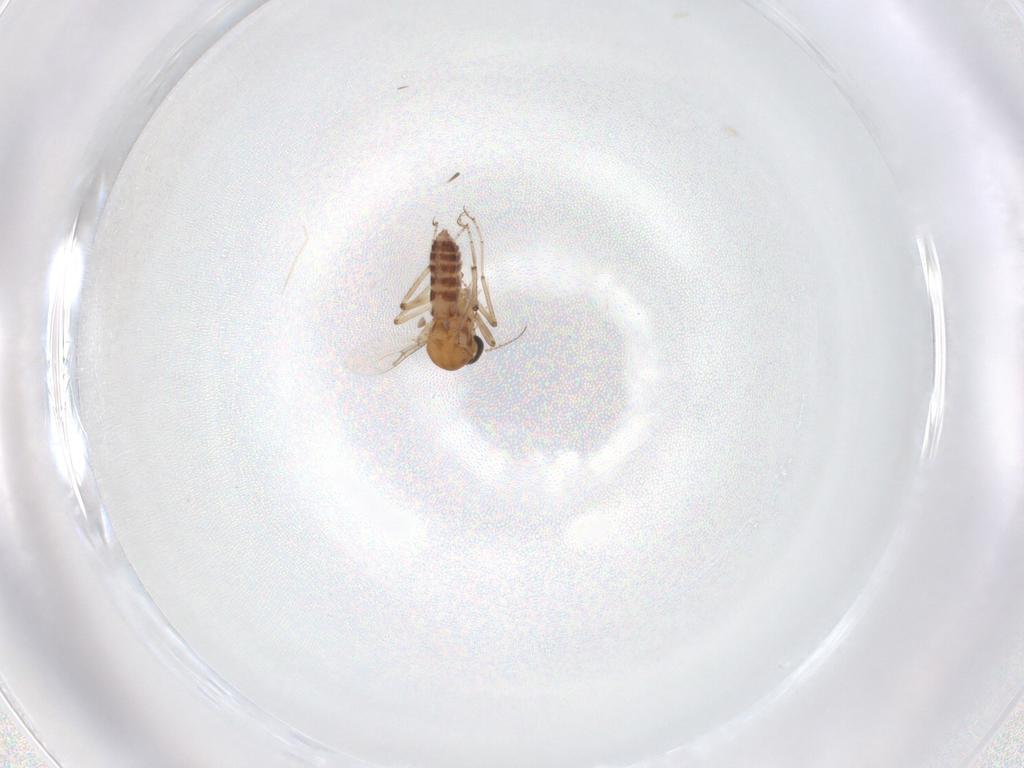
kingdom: Animalia
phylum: Arthropoda
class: Insecta
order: Diptera
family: Ceratopogonidae
